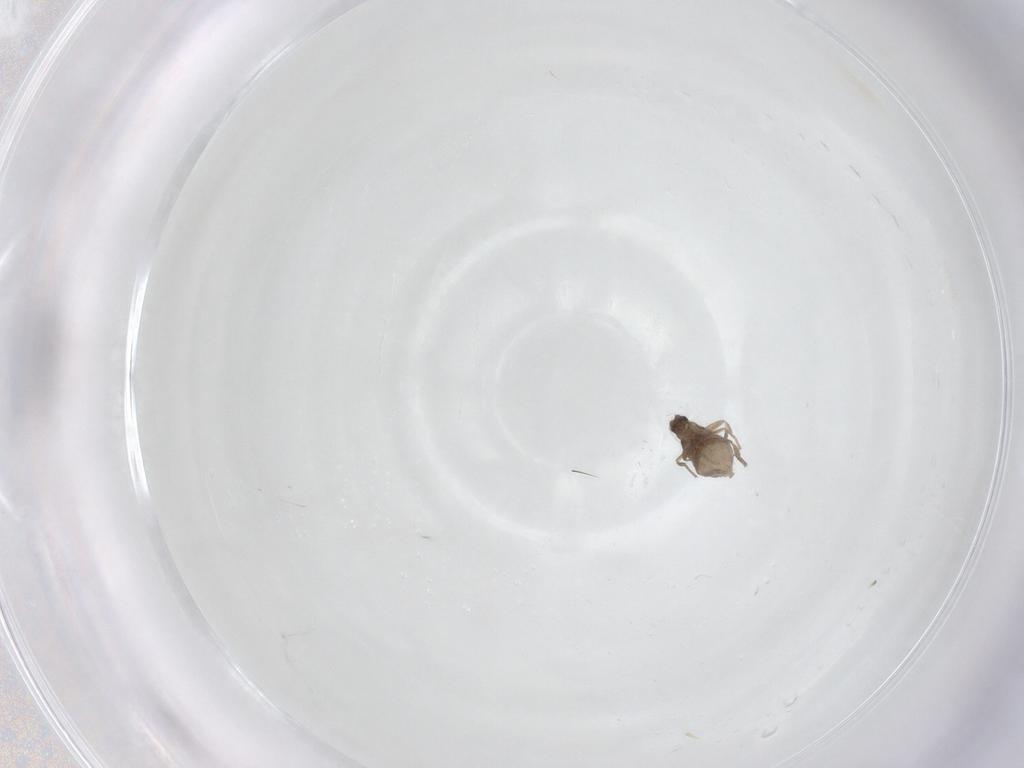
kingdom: Animalia
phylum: Arthropoda
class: Insecta
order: Diptera
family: Phoridae
